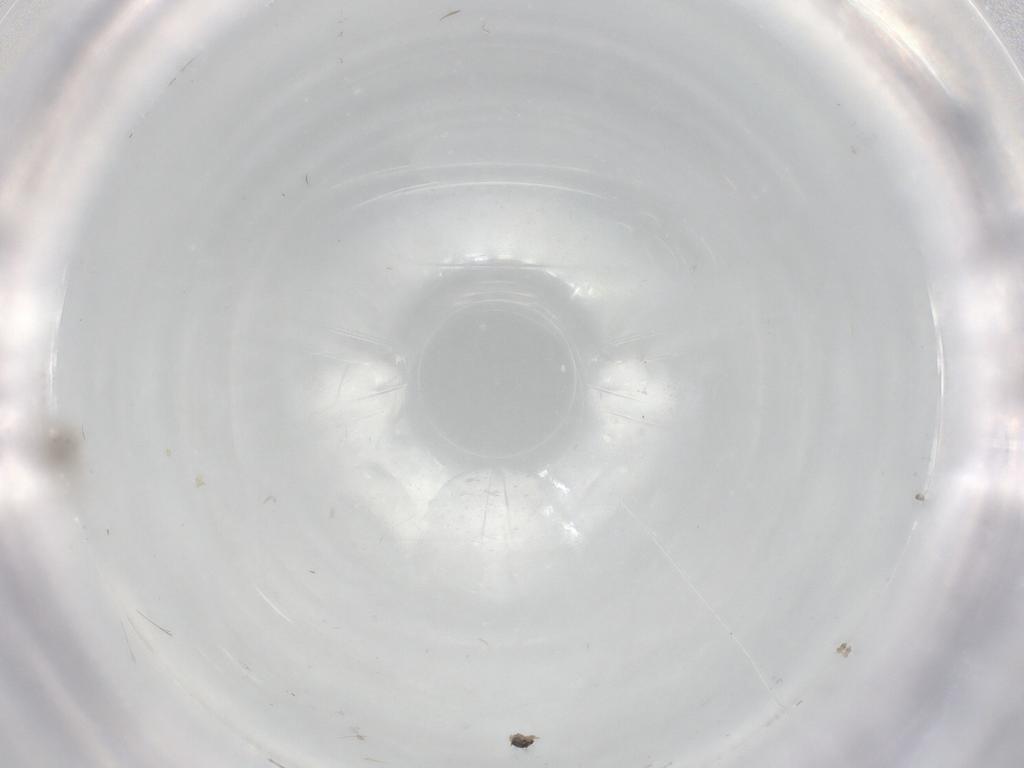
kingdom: Animalia
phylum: Arthropoda
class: Insecta
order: Diptera
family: Cecidomyiidae
